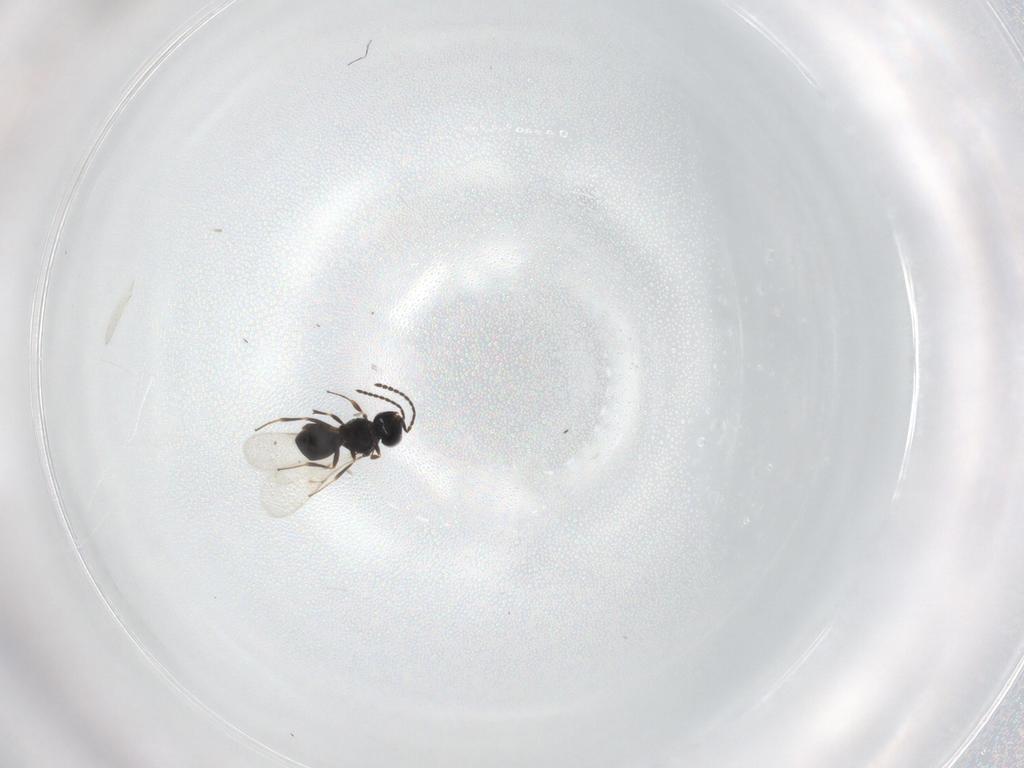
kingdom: Animalia
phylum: Arthropoda
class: Insecta
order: Hymenoptera
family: Scelionidae
